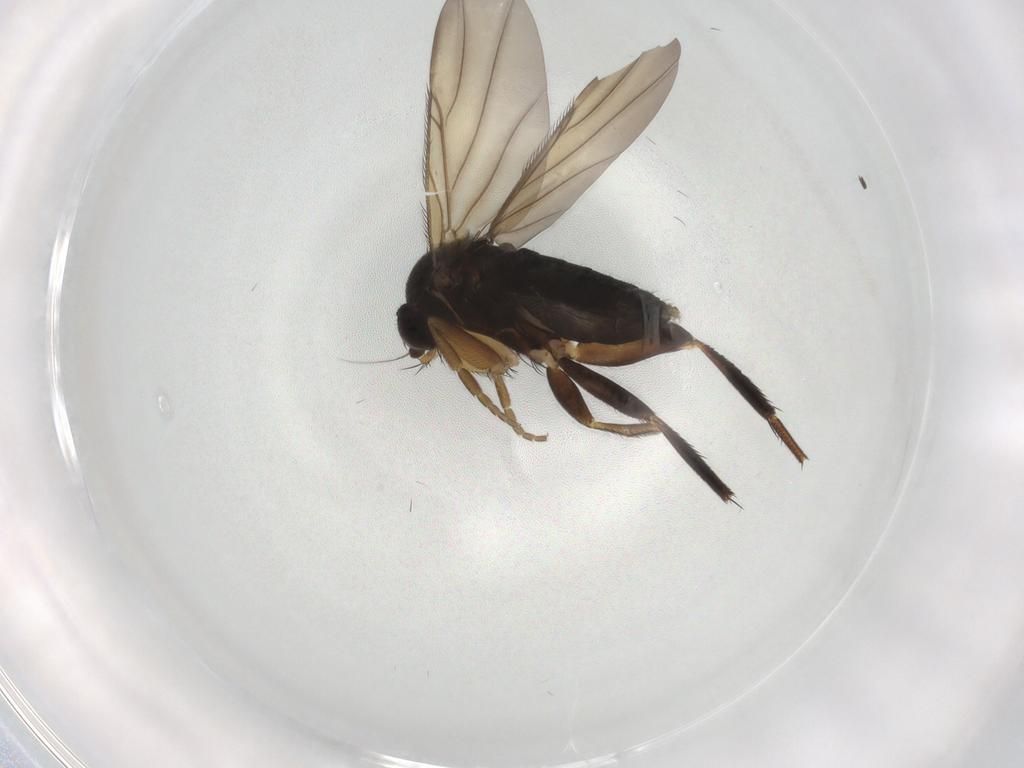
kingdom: Animalia
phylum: Arthropoda
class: Insecta
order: Diptera
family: Phoridae
